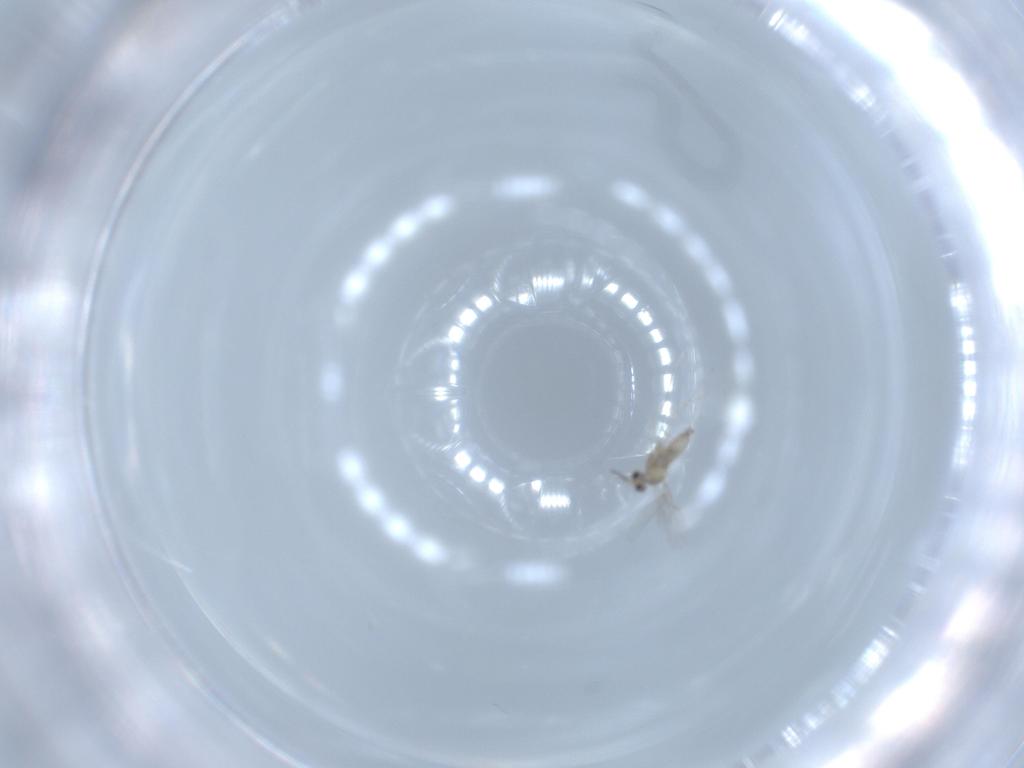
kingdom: Animalia
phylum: Arthropoda
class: Insecta
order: Diptera
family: Cecidomyiidae
